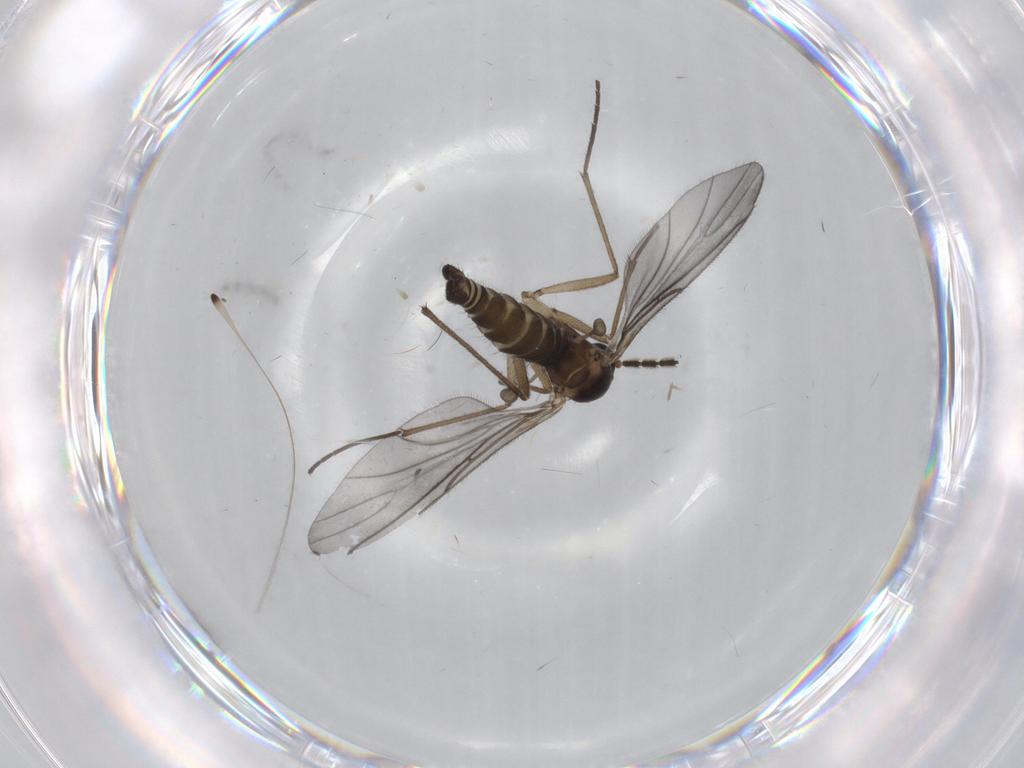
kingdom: Animalia
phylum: Arthropoda
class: Insecta
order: Diptera
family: Sciaridae
